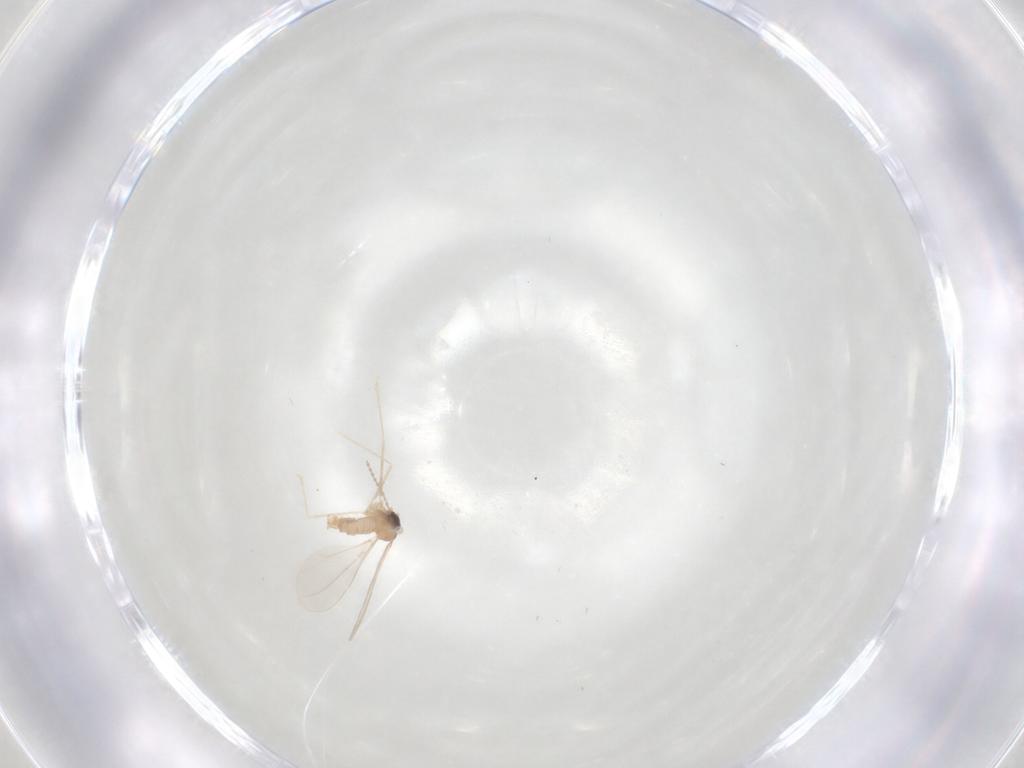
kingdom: Animalia
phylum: Arthropoda
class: Insecta
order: Diptera
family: Cecidomyiidae
